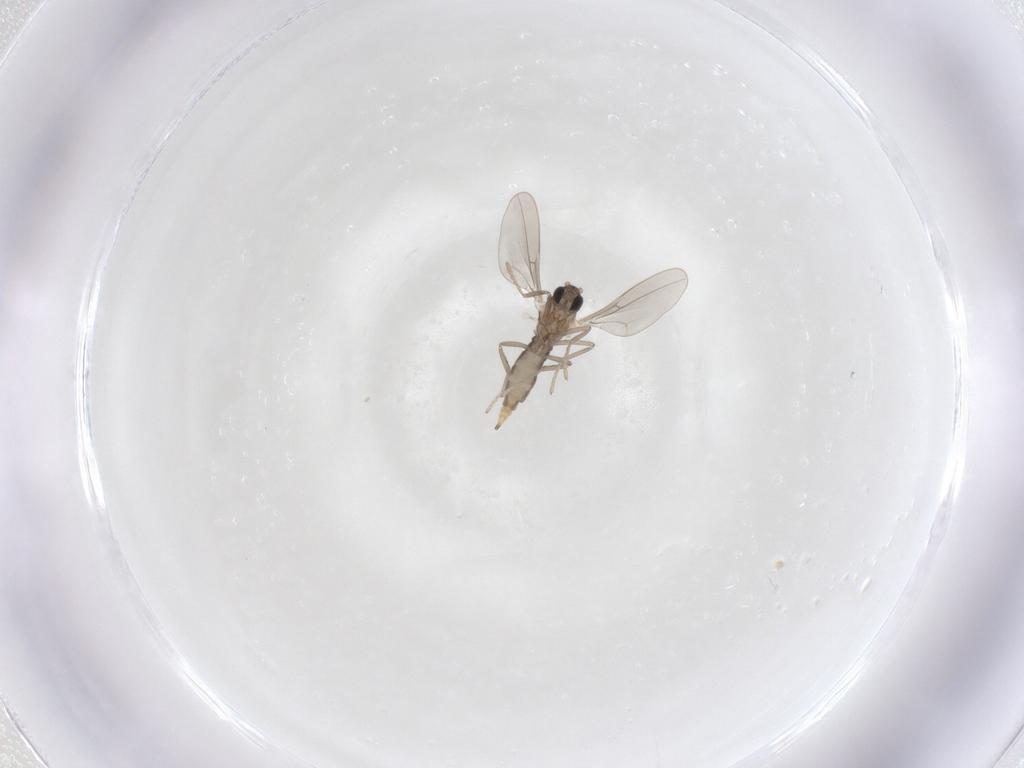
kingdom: Animalia
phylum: Arthropoda
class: Insecta
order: Diptera
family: Cecidomyiidae
